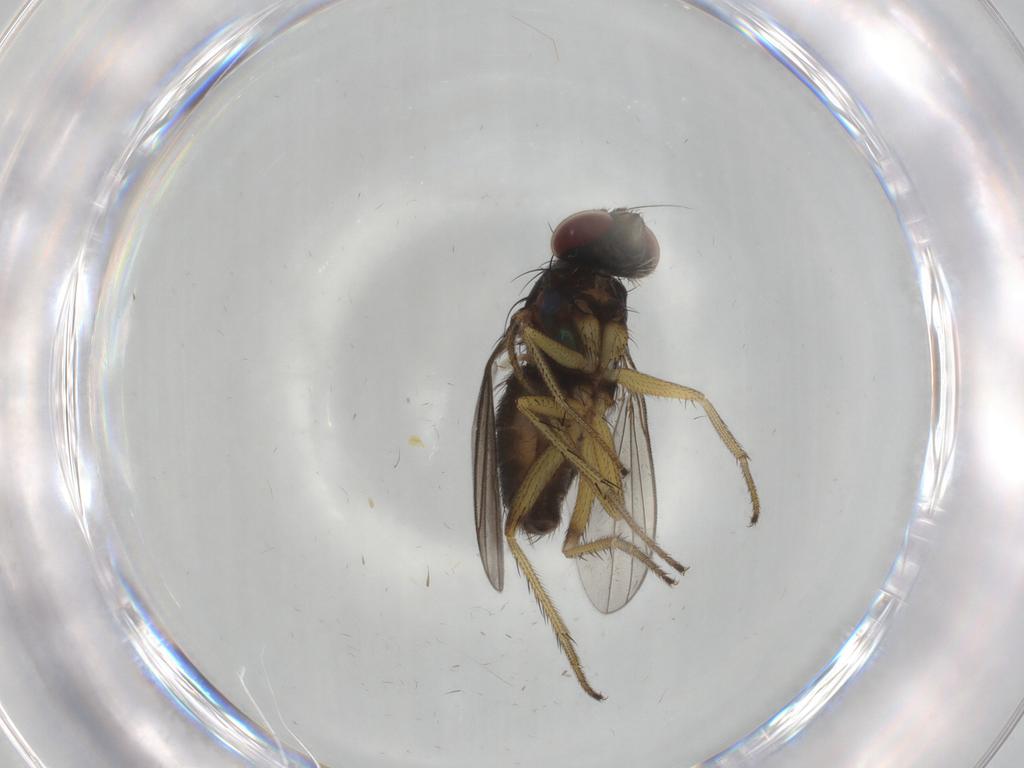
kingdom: Animalia
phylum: Arthropoda
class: Insecta
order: Diptera
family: Dolichopodidae
